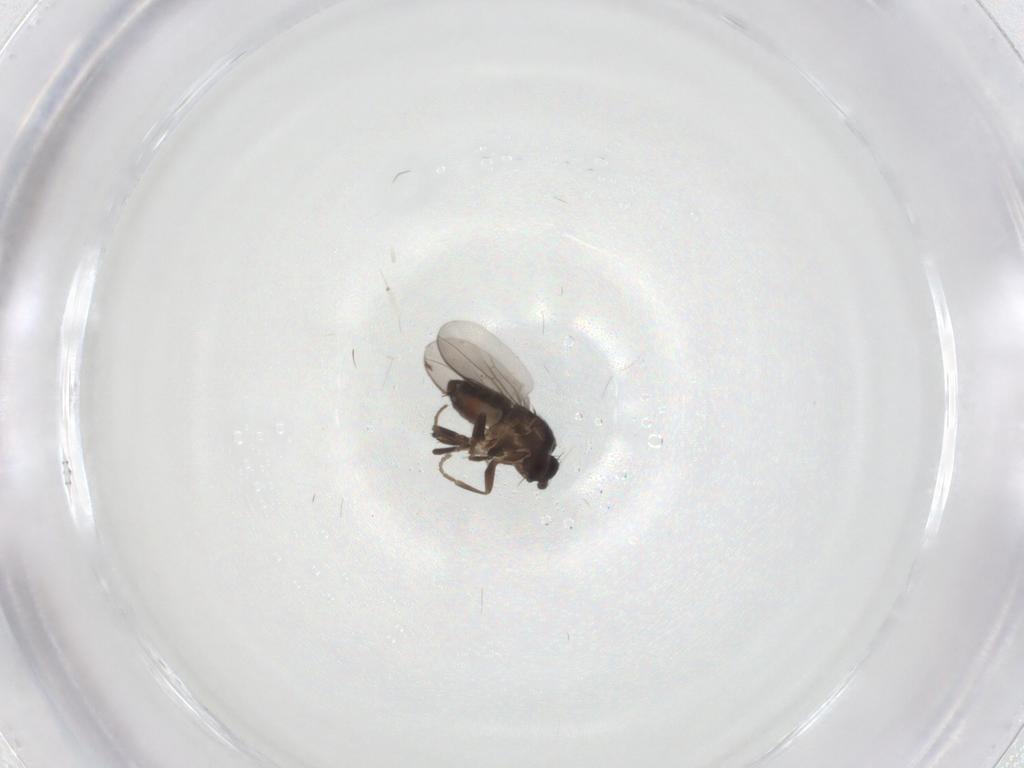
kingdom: Animalia
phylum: Arthropoda
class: Insecta
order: Diptera
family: Sphaeroceridae
